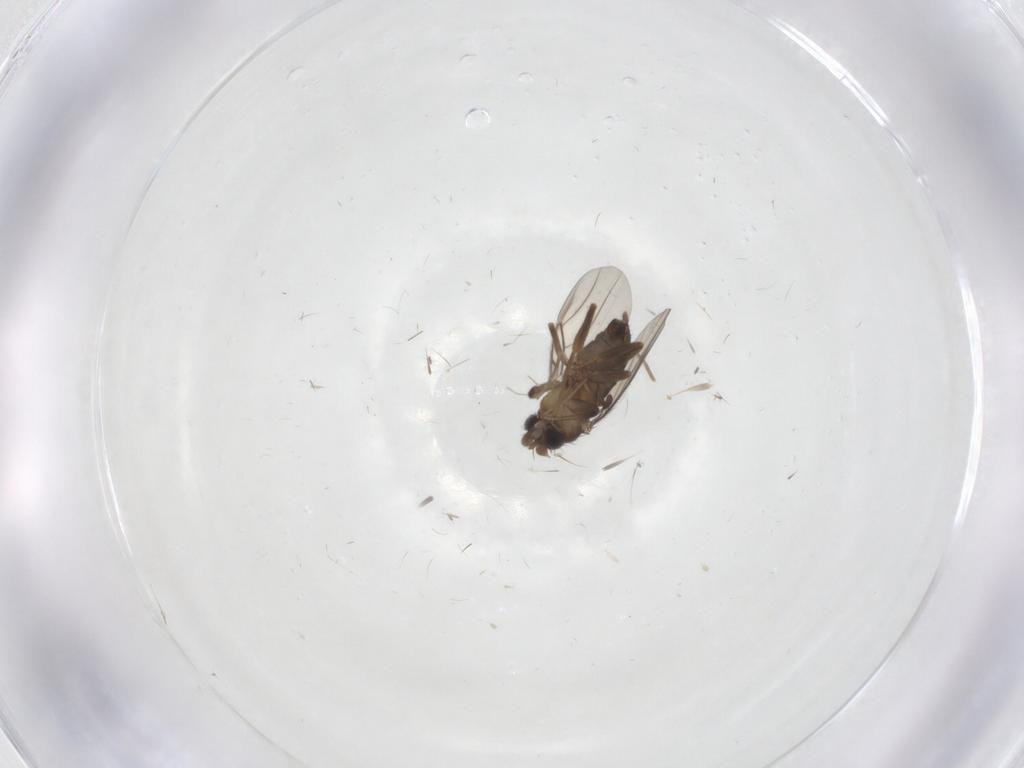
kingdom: Animalia
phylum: Arthropoda
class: Insecta
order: Diptera
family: Phoridae
